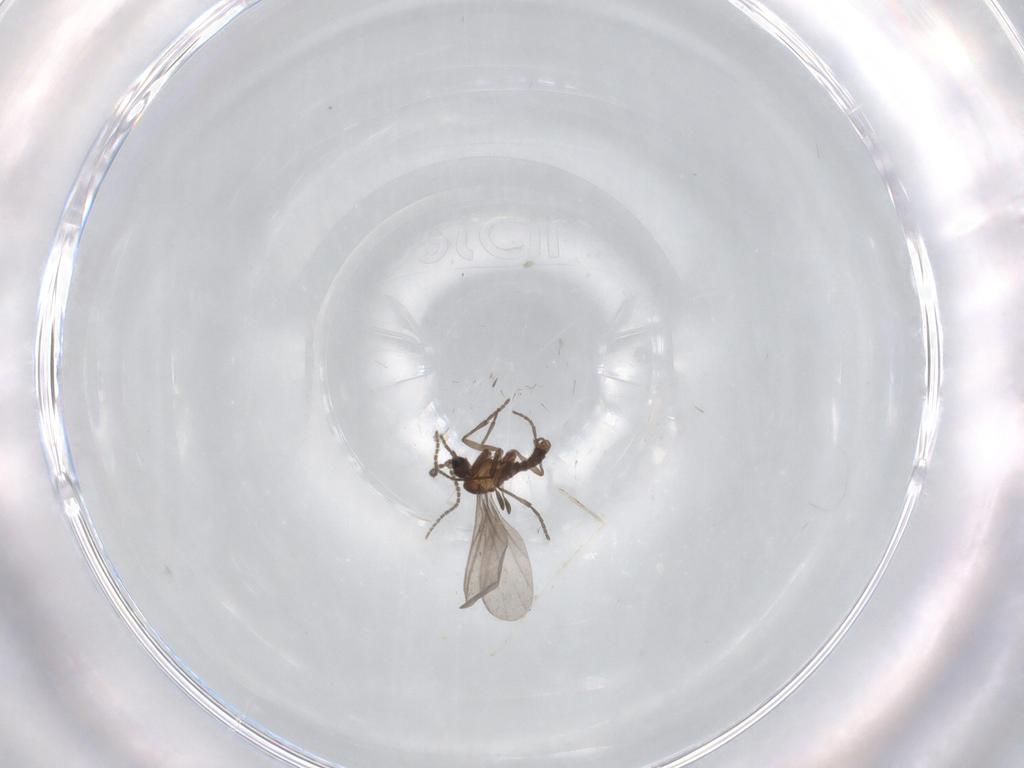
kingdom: Animalia
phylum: Arthropoda
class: Insecta
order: Diptera
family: Sciaridae
